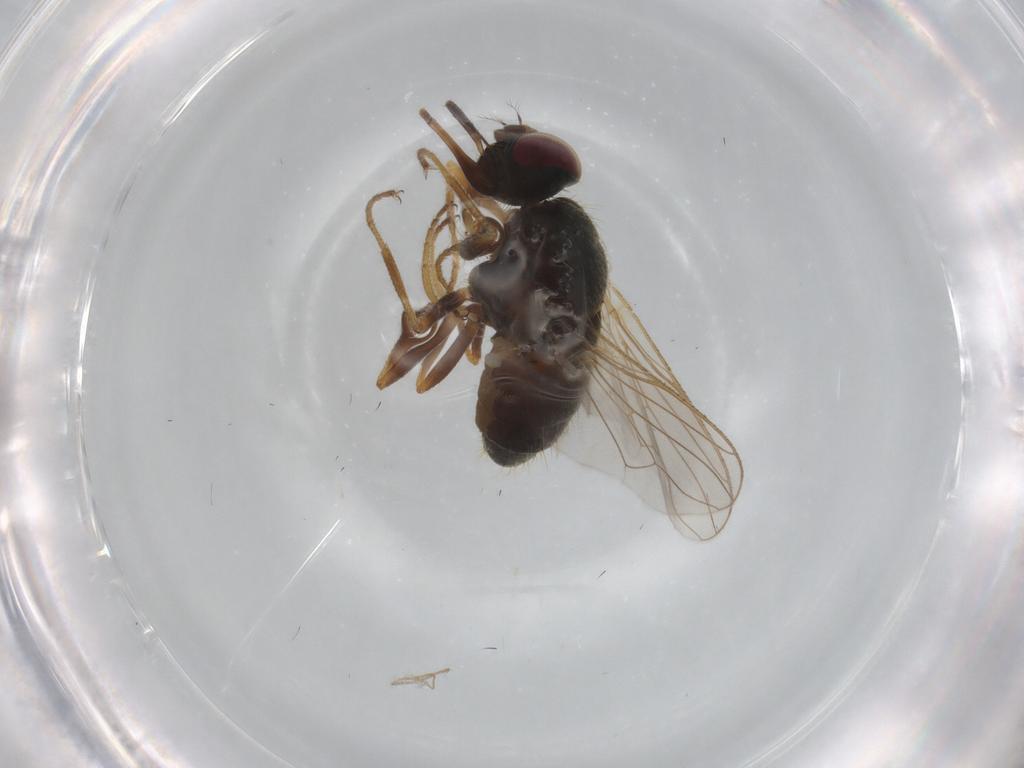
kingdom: Animalia
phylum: Arthropoda
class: Insecta
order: Diptera
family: Muscidae
